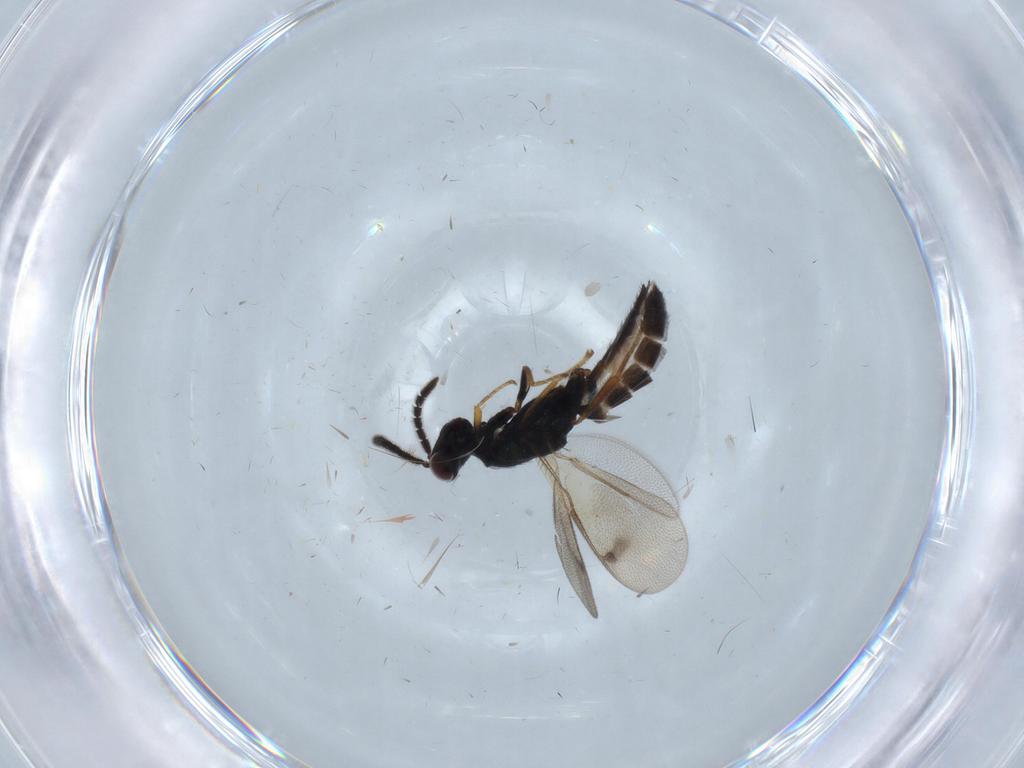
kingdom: Animalia
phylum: Arthropoda
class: Insecta
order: Hymenoptera
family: Pteromalidae
